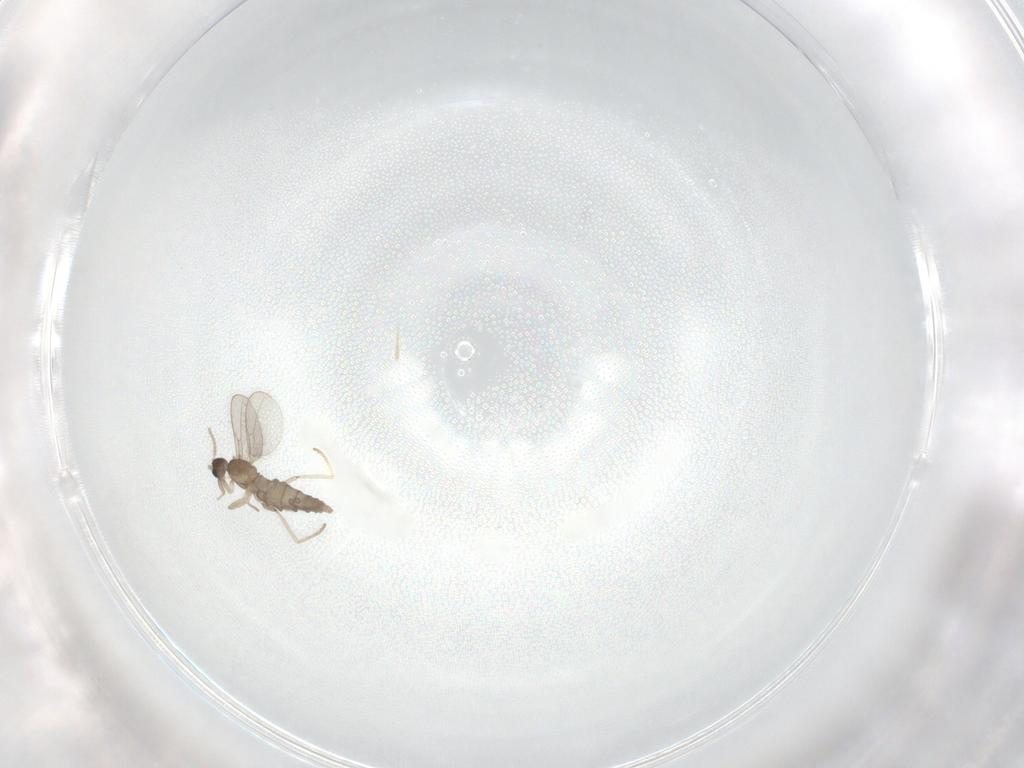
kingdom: Animalia
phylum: Arthropoda
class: Insecta
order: Diptera
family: Cecidomyiidae
